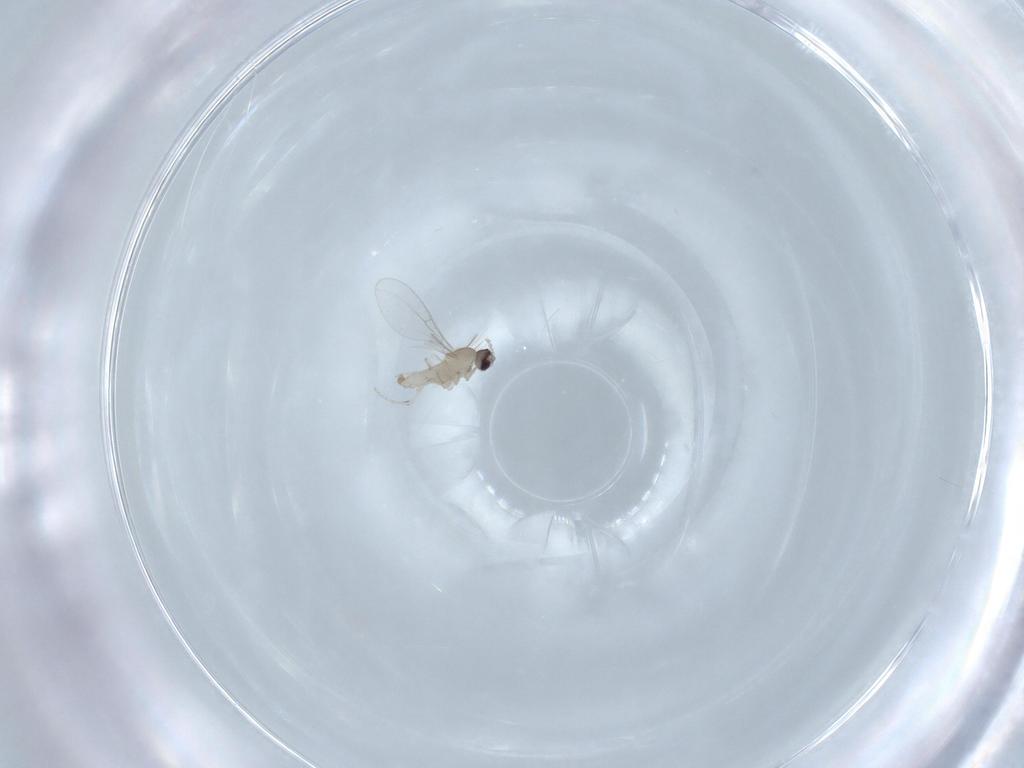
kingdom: Animalia
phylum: Arthropoda
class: Insecta
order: Diptera
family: Cecidomyiidae
